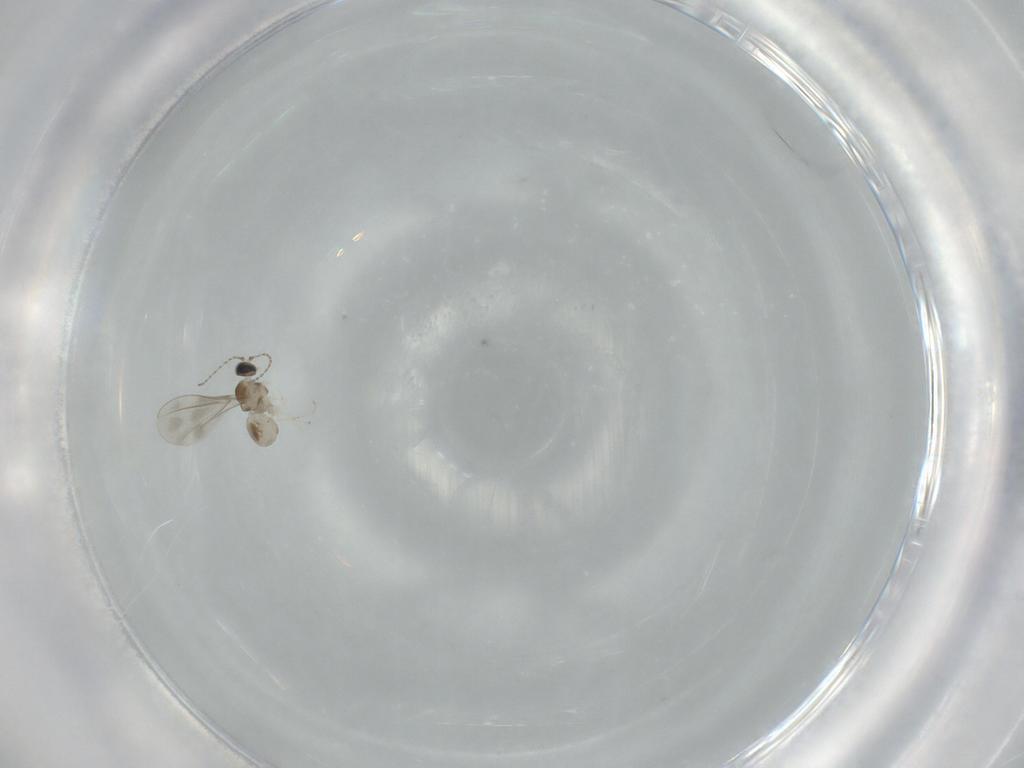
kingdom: Animalia
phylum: Arthropoda
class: Insecta
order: Diptera
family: Cecidomyiidae
